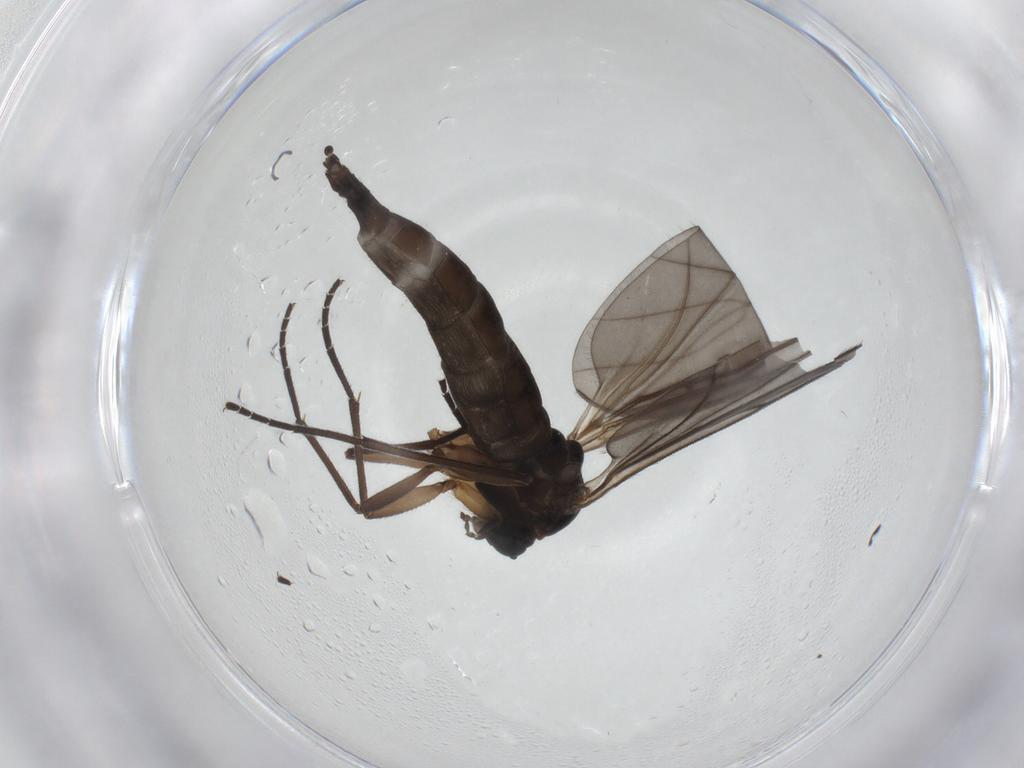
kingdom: Animalia
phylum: Arthropoda
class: Insecta
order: Diptera
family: Sciaridae
